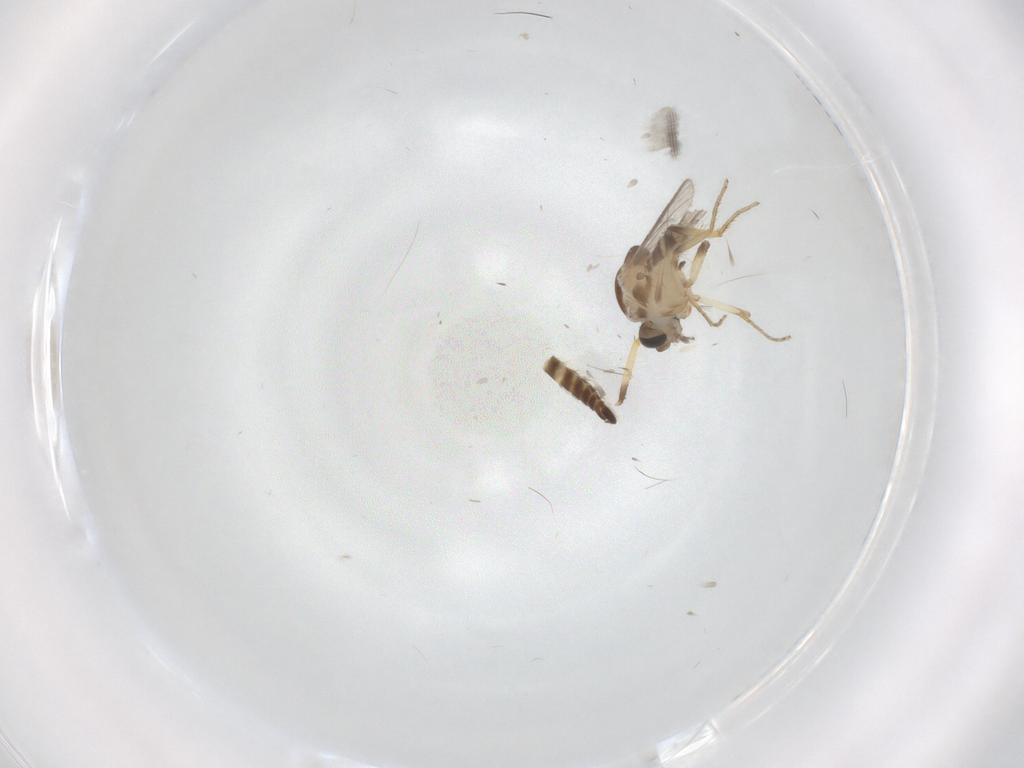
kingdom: Animalia
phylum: Arthropoda
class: Insecta
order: Diptera
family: Ceratopogonidae
